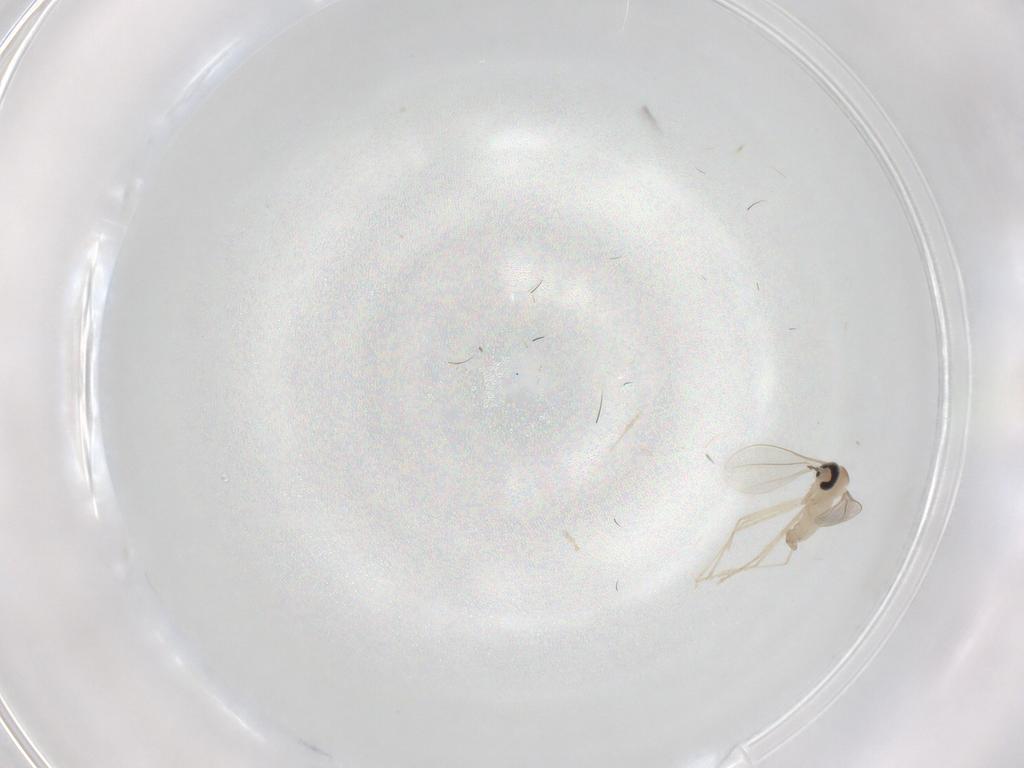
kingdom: Animalia
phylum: Arthropoda
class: Insecta
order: Diptera
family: Cecidomyiidae
